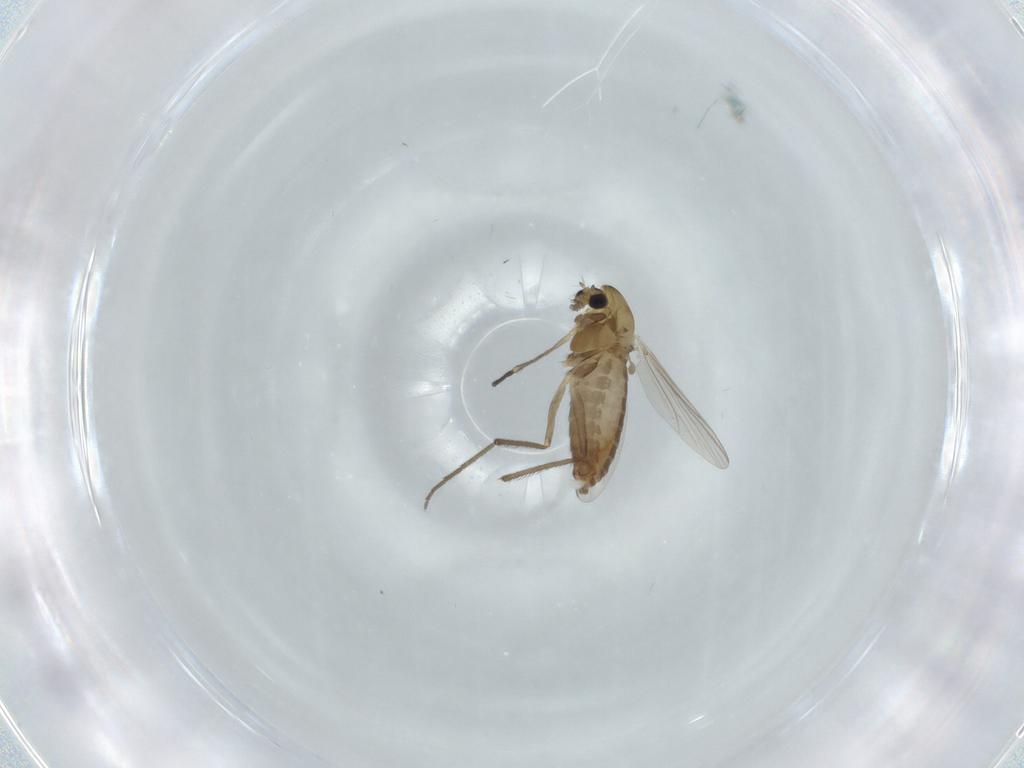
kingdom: Animalia
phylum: Arthropoda
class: Insecta
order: Diptera
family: Chironomidae
